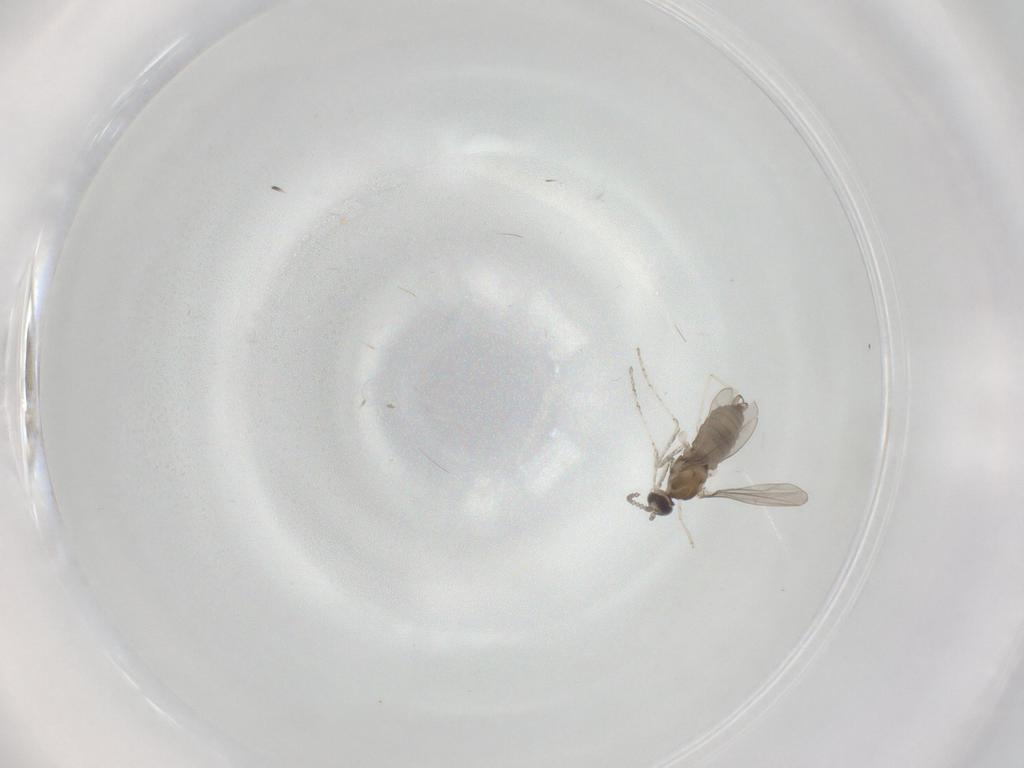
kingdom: Animalia
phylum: Arthropoda
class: Insecta
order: Diptera
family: Cecidomyiidae
